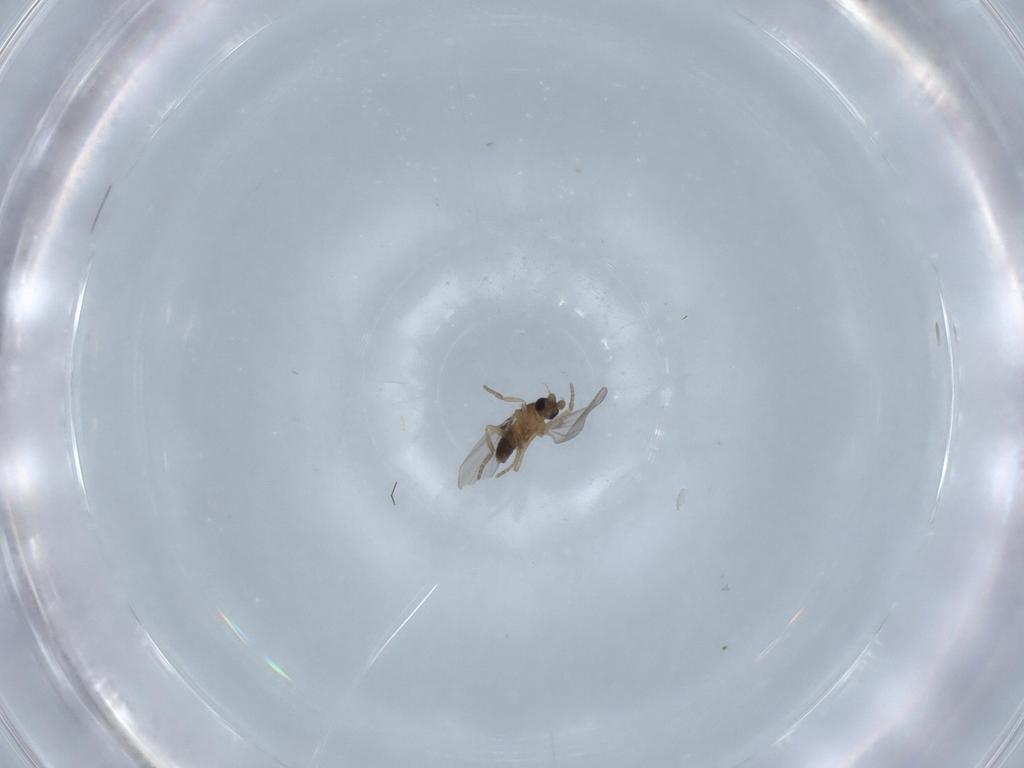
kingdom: Animalia
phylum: Arthropoda
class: Insecta
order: Diptera
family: Phoridae
